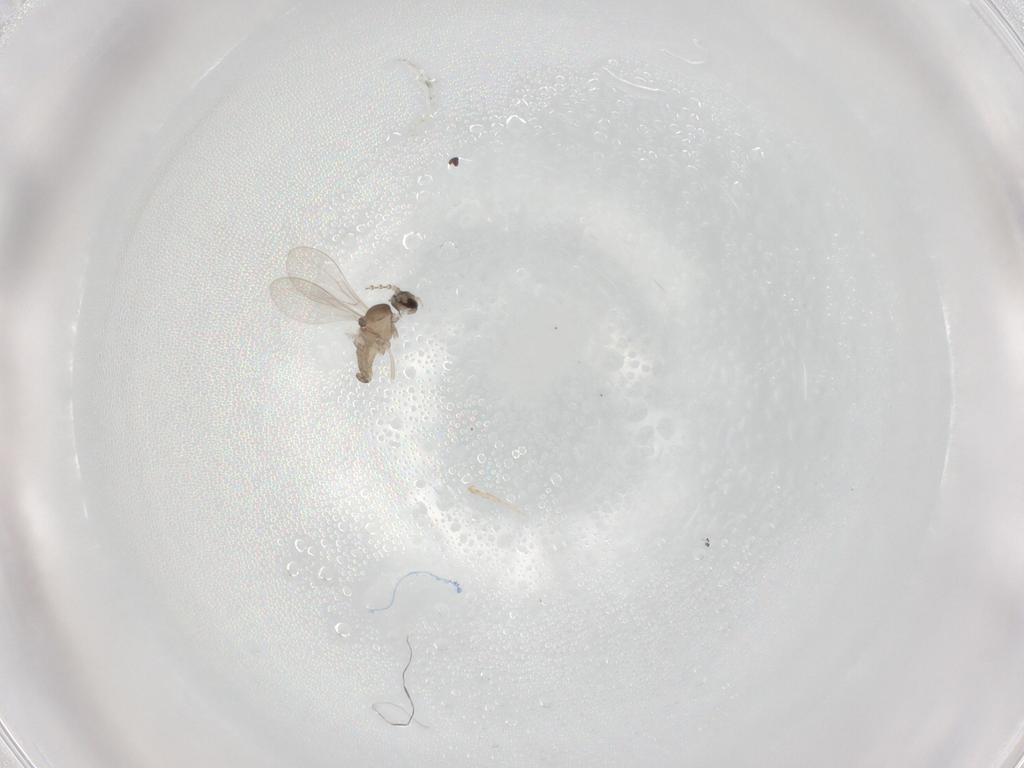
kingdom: Animalia
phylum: Arthropoda
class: Insecta
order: Diptera
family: Cecidomyiidae
